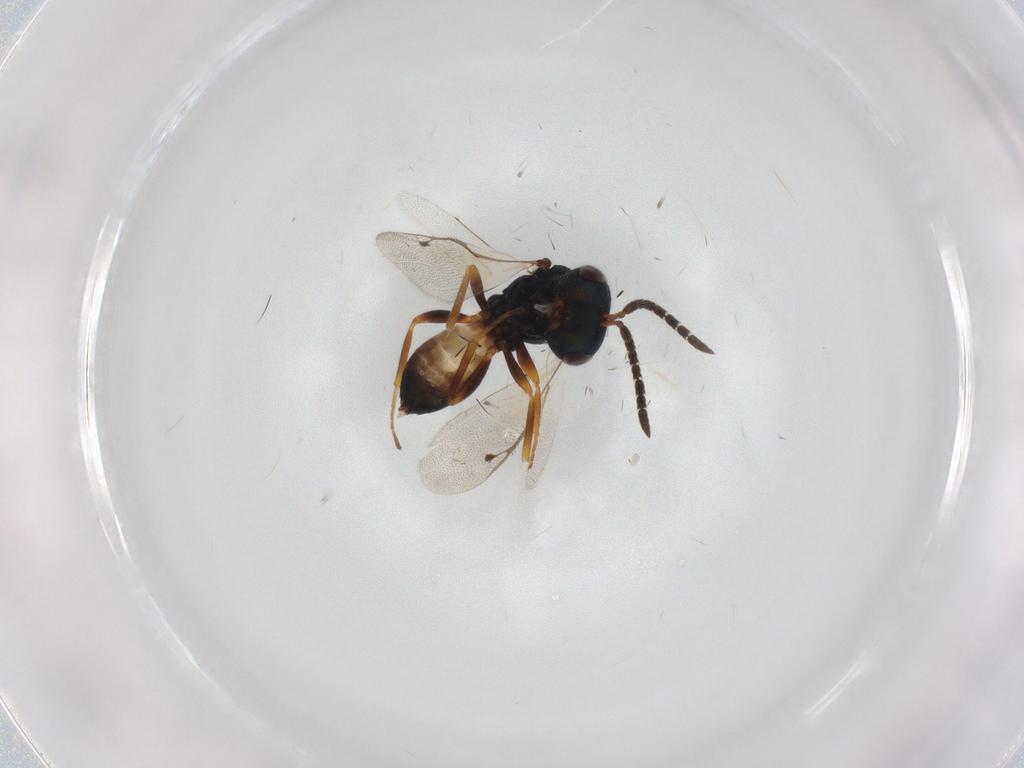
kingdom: Animalia
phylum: Arthropoda
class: Insecta
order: Hymenoptera
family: Pteromalidae
